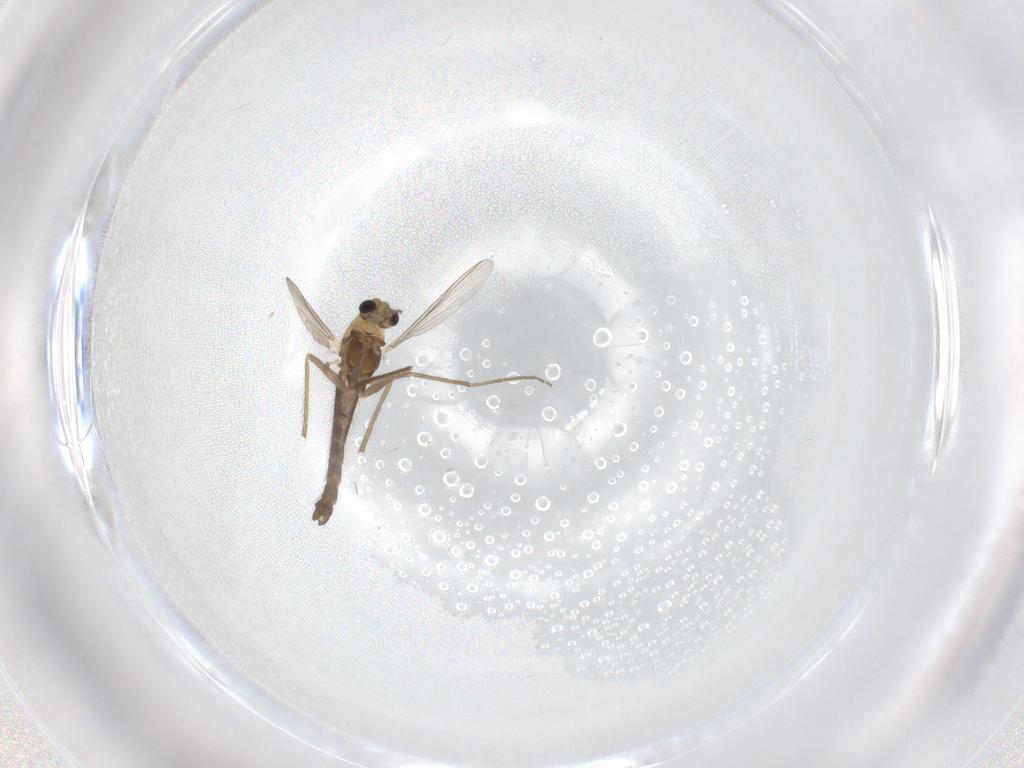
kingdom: Animalia
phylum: Arthropoda
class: Insecta
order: Diptera
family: Chironomidae
